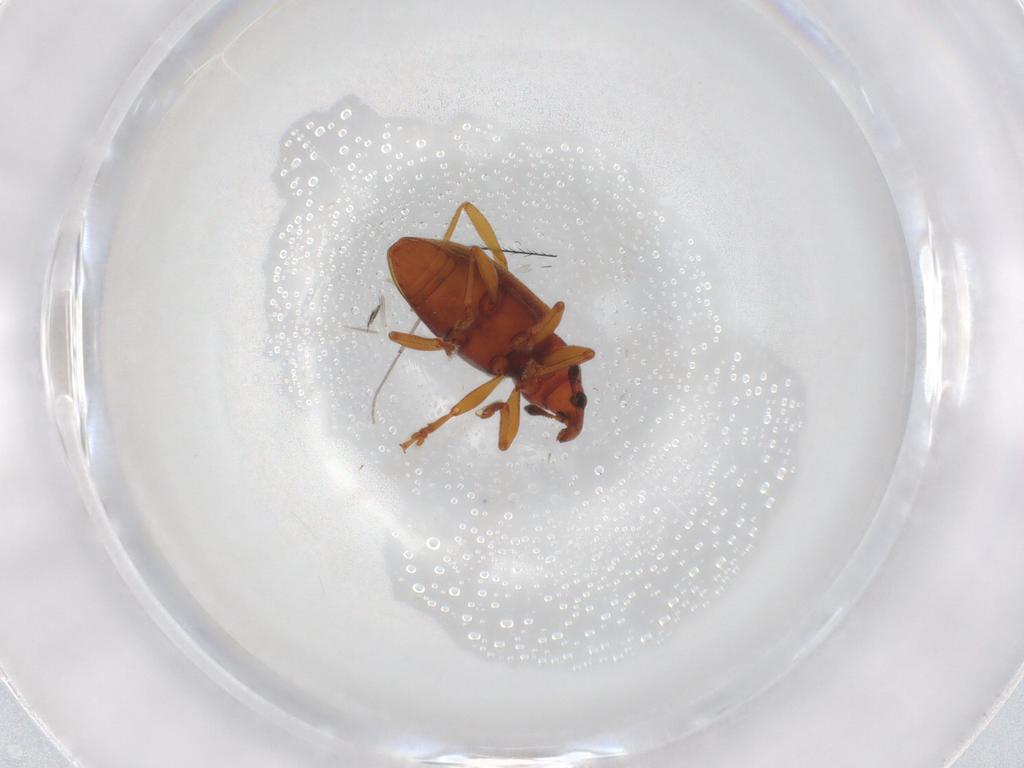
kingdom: Animalia
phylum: Arthropoda
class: Insecta
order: Coleoptera
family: Curculionidae
